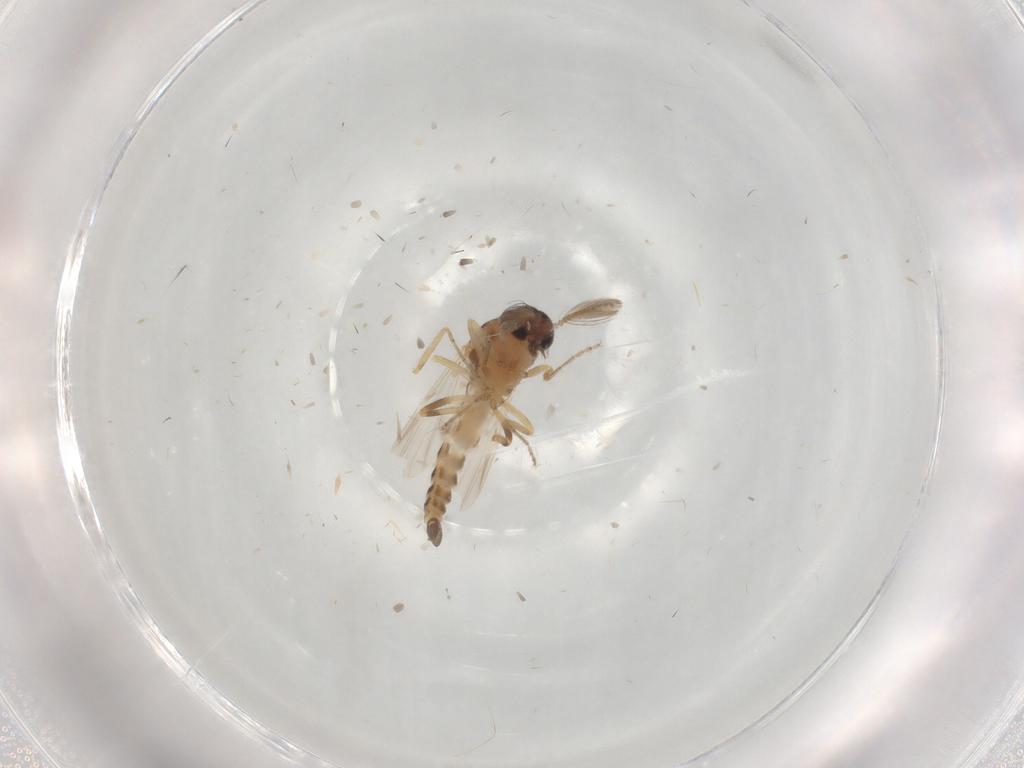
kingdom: Animalia
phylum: Arthropoda
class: Insecta
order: Diptera
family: Ceratopogonidae
